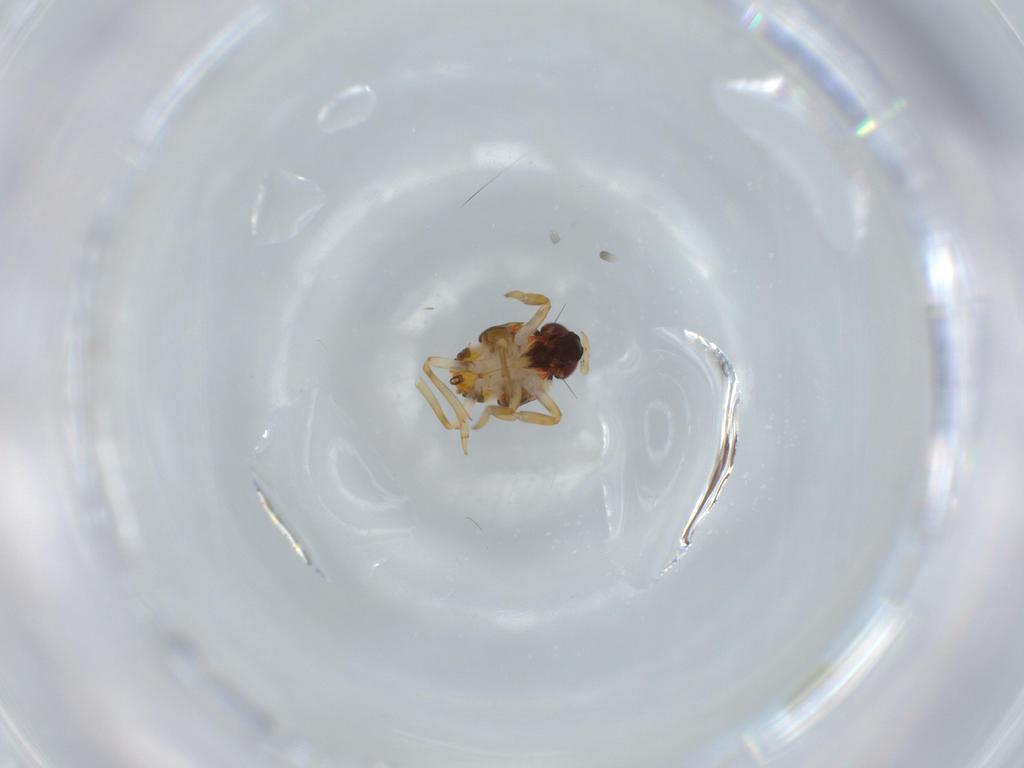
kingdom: Animalia
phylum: Arthropoda
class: Insecta
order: Hemiptera
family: Issidae
